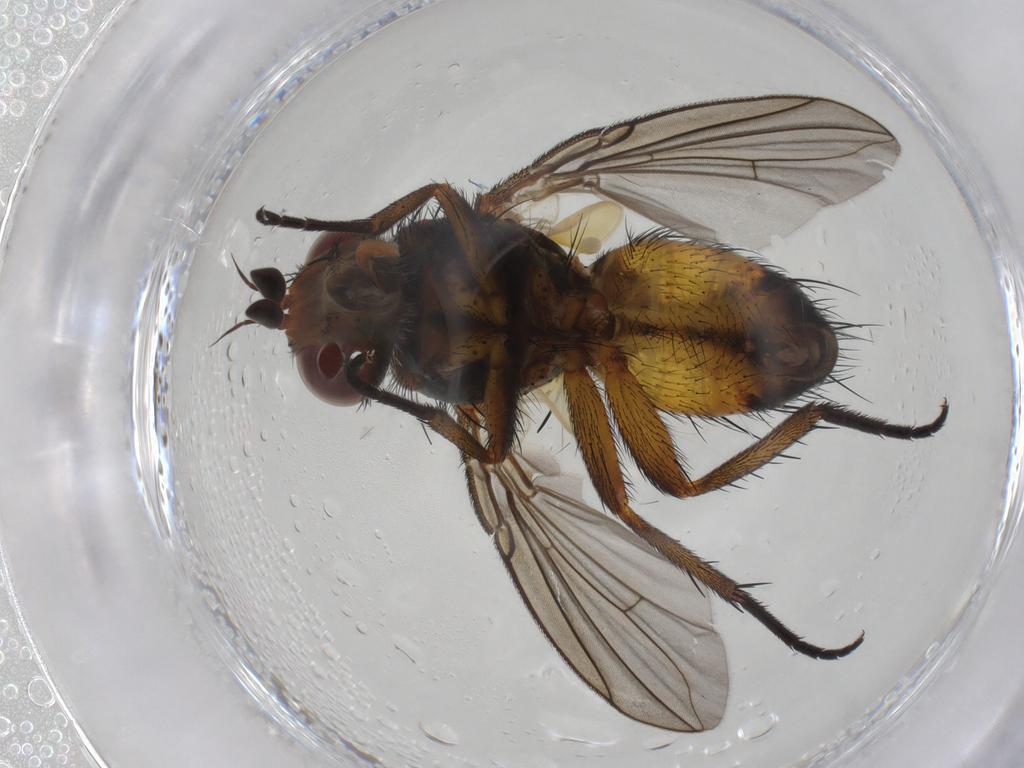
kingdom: Animalia
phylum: Arthropoda
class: Insecta
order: Diptera
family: Tachinidae
